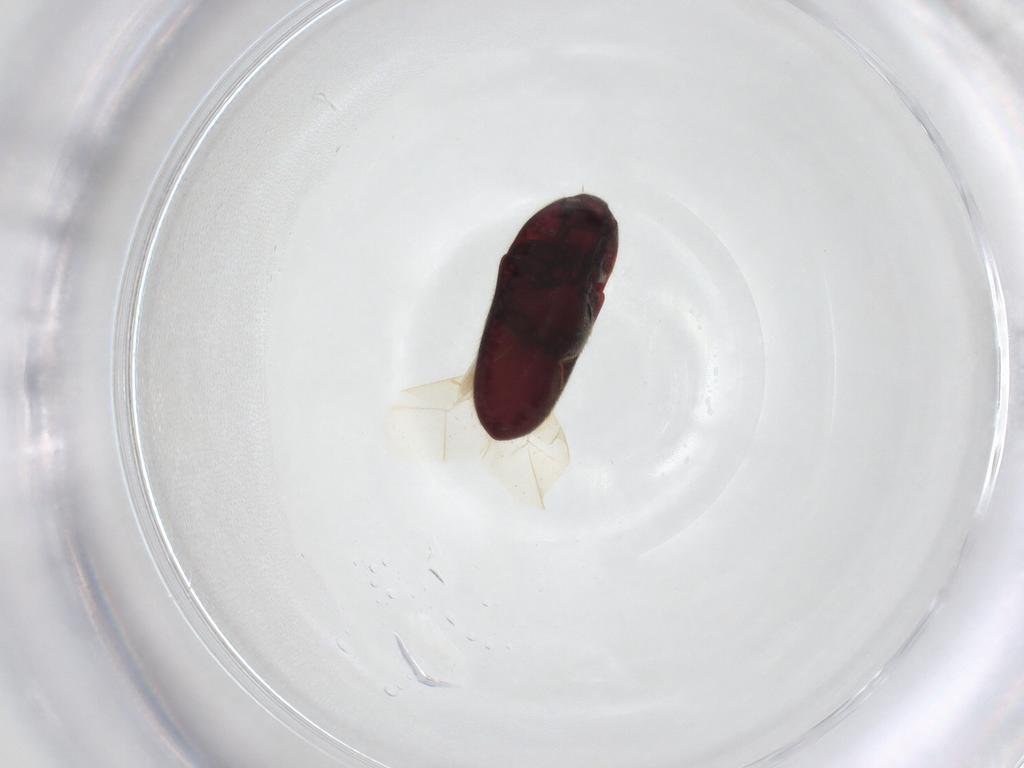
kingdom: Animalia
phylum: Arthropoda
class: Insecta
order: Coleoptera
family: Throscidae
